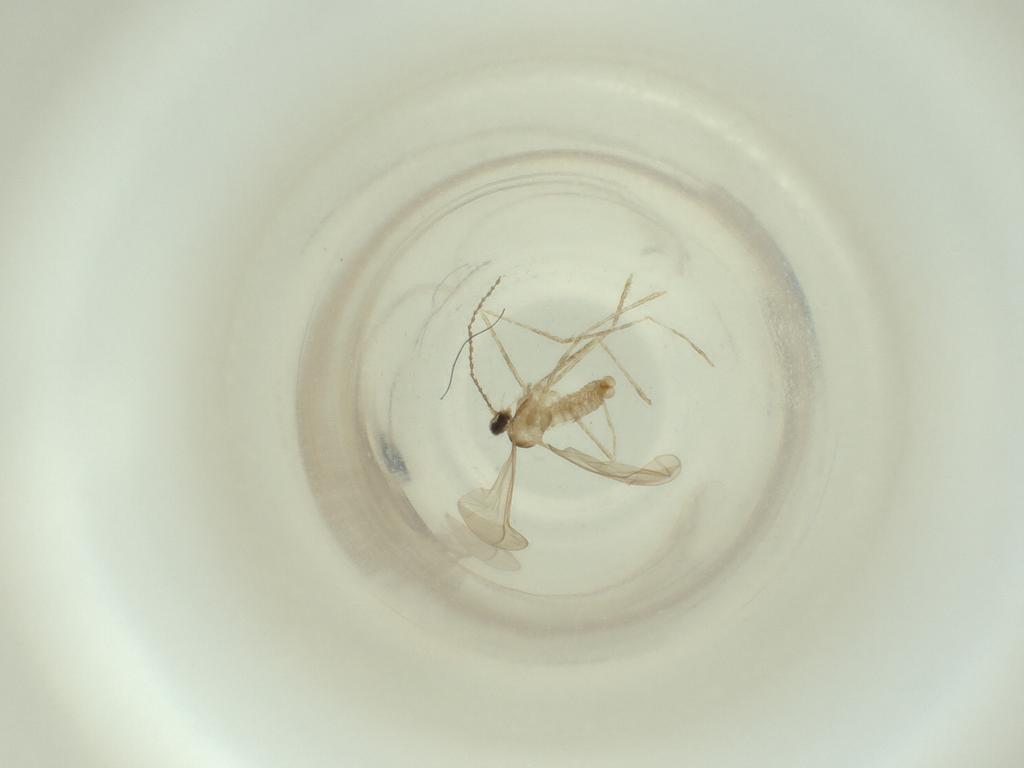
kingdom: Animalia
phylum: Arthropoda
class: Insecta
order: Diptera
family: Cecidomyiidae
